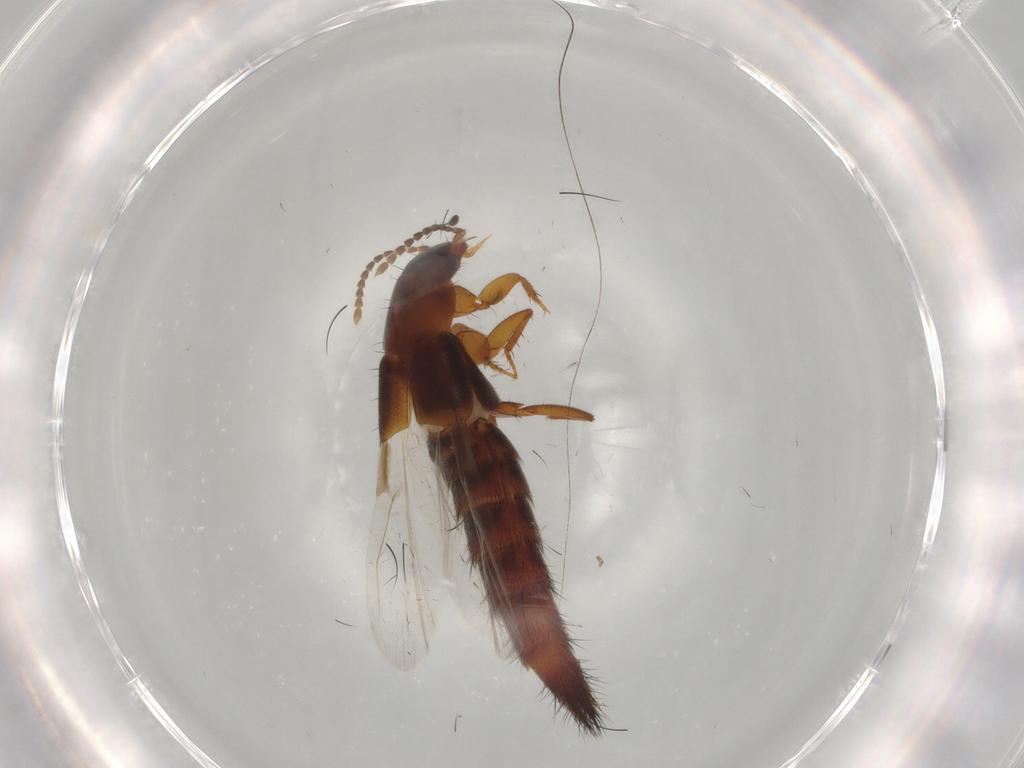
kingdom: Animalia
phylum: Arthropoda
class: Insecta
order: Coleoptera
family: Staphylinidae
